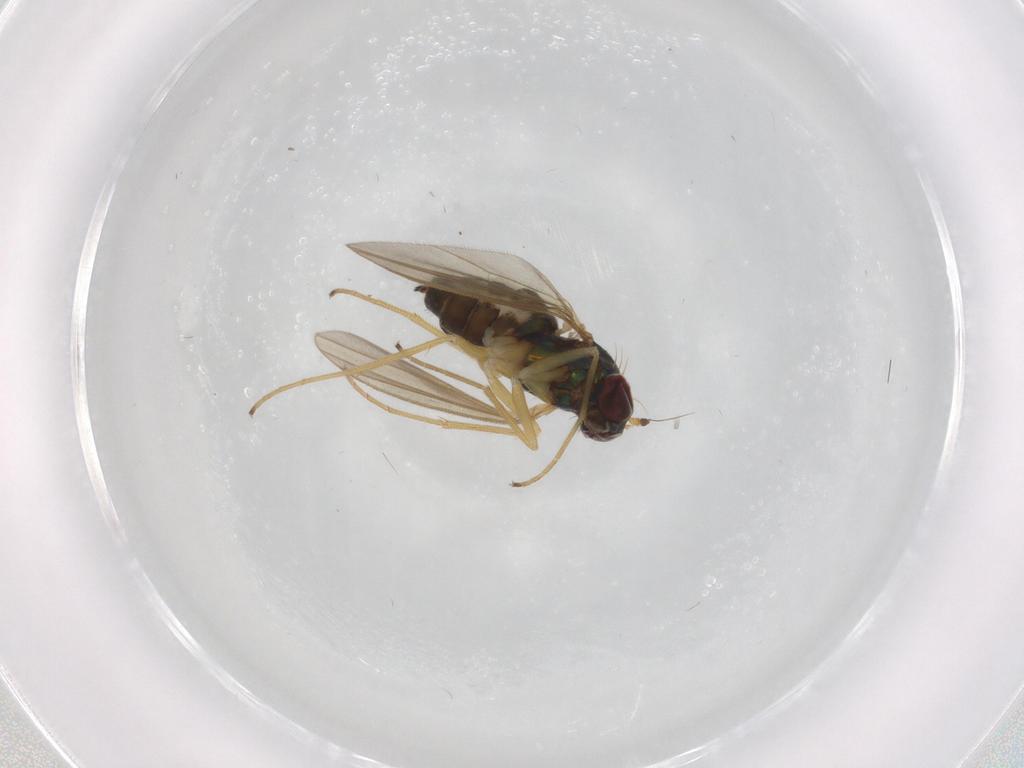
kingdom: Animalia
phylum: Arthropoda
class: Insecta
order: Diptera
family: Dolichopodidae
